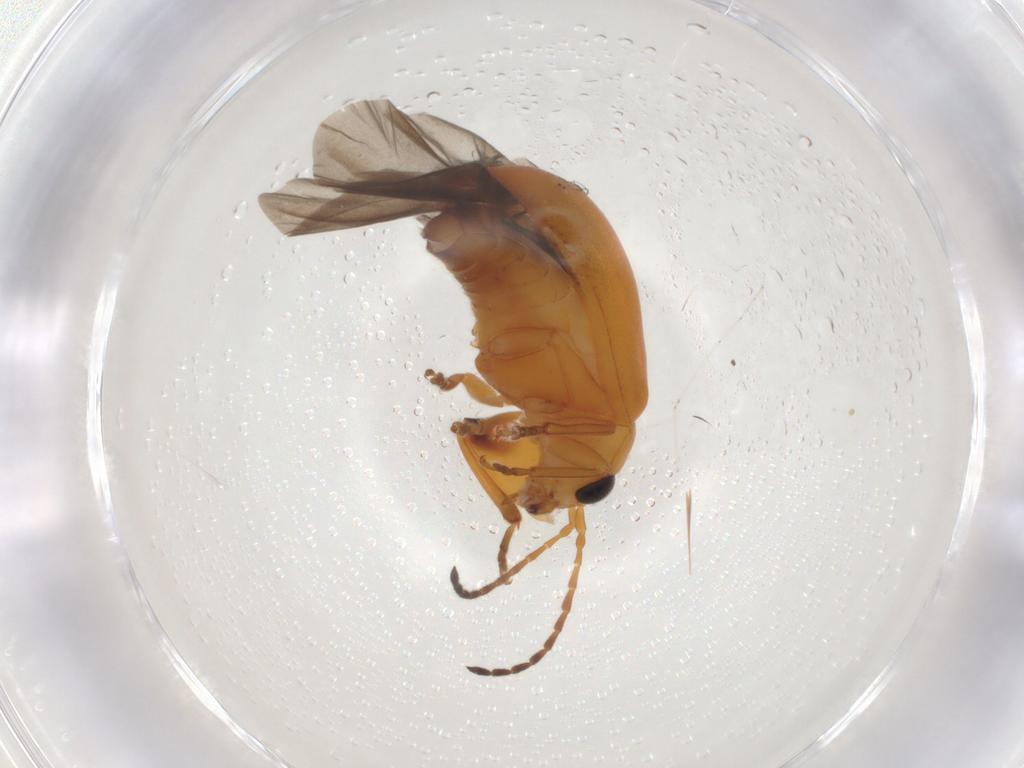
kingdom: Animalia
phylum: Arthropoda
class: Insecta
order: Coleoptera
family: Chrysomelidae
